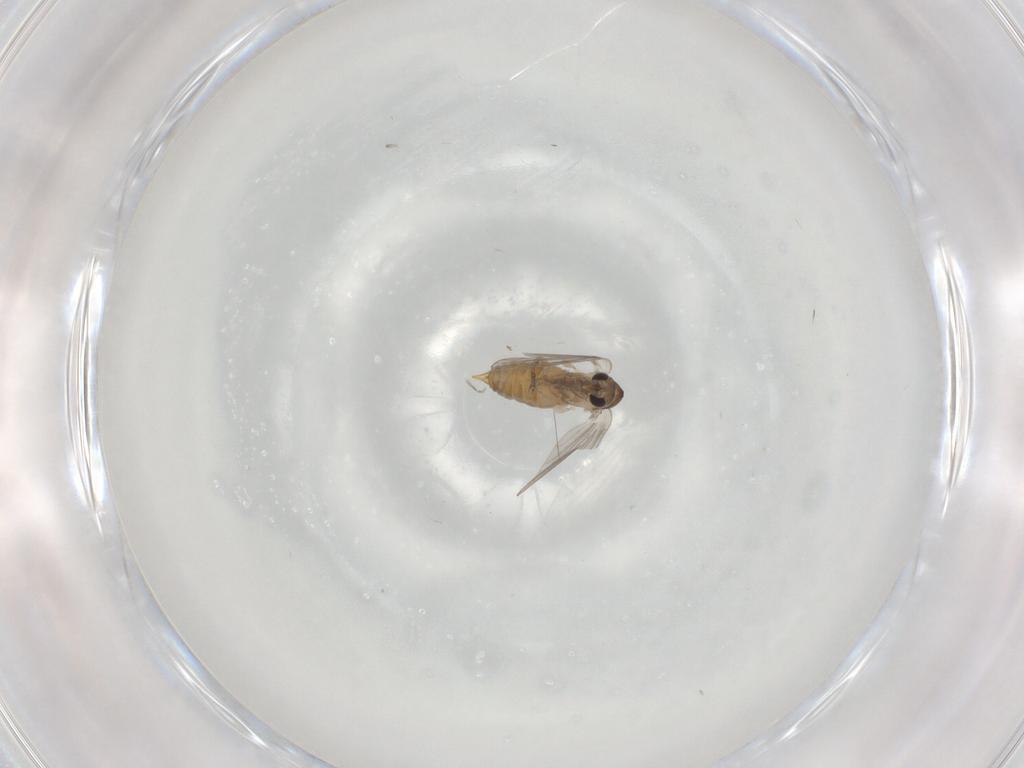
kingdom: Animalia
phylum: Arthropoda
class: Insecta
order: Diptera
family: Psychodidae
